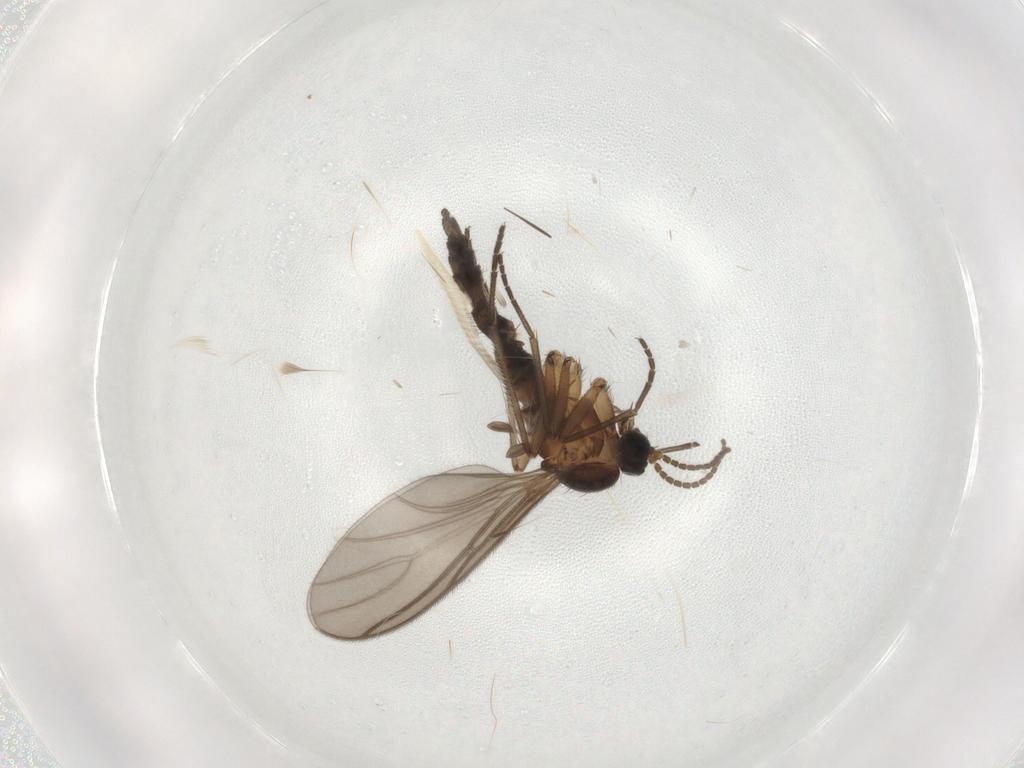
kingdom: Animalia
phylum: Arthropoda
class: Insecta
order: Diptera
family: Sciaridae
